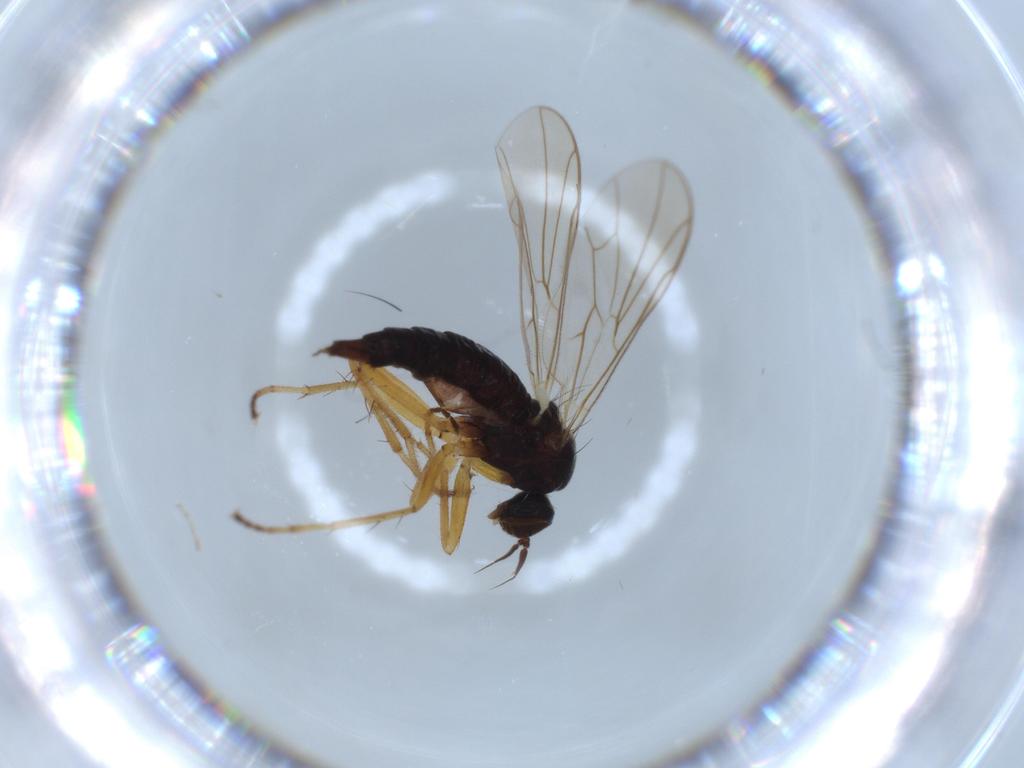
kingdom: Animalia
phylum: Arthropoda
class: Insecta
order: Diptera
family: Hybotidae
